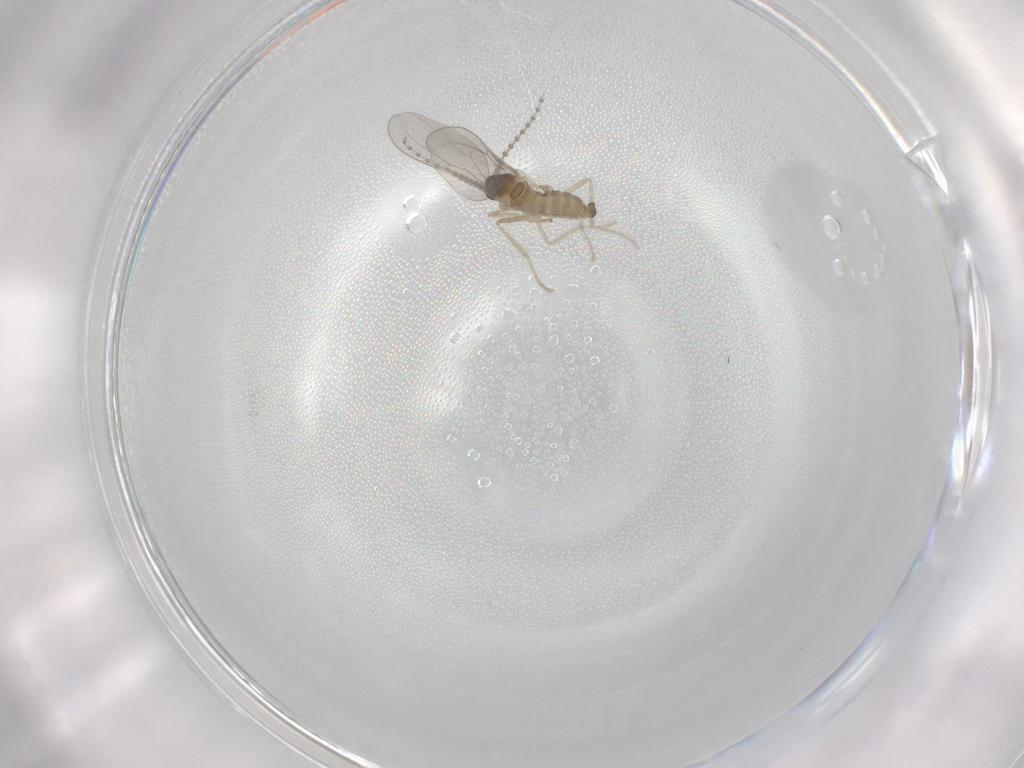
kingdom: Animalia
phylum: Arthropoda
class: Insecta
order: Diptera
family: Cecidomyiidae
